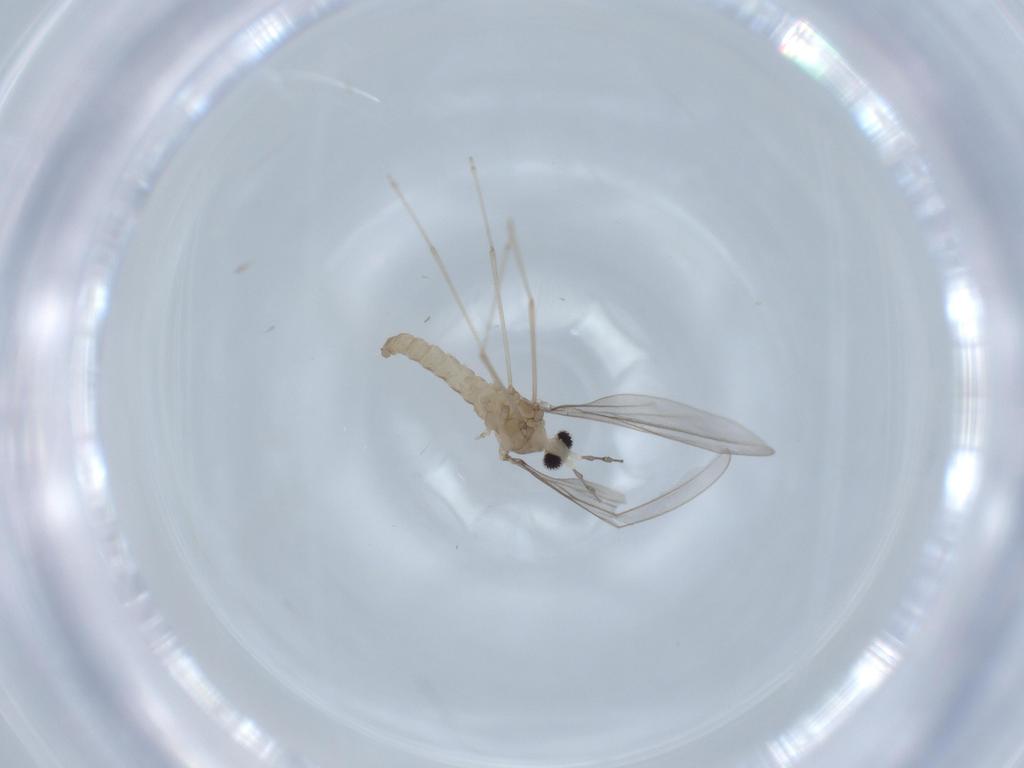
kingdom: Animalia
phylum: Arthropoda
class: Insecta
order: Diptera
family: Cecidomyiidae
